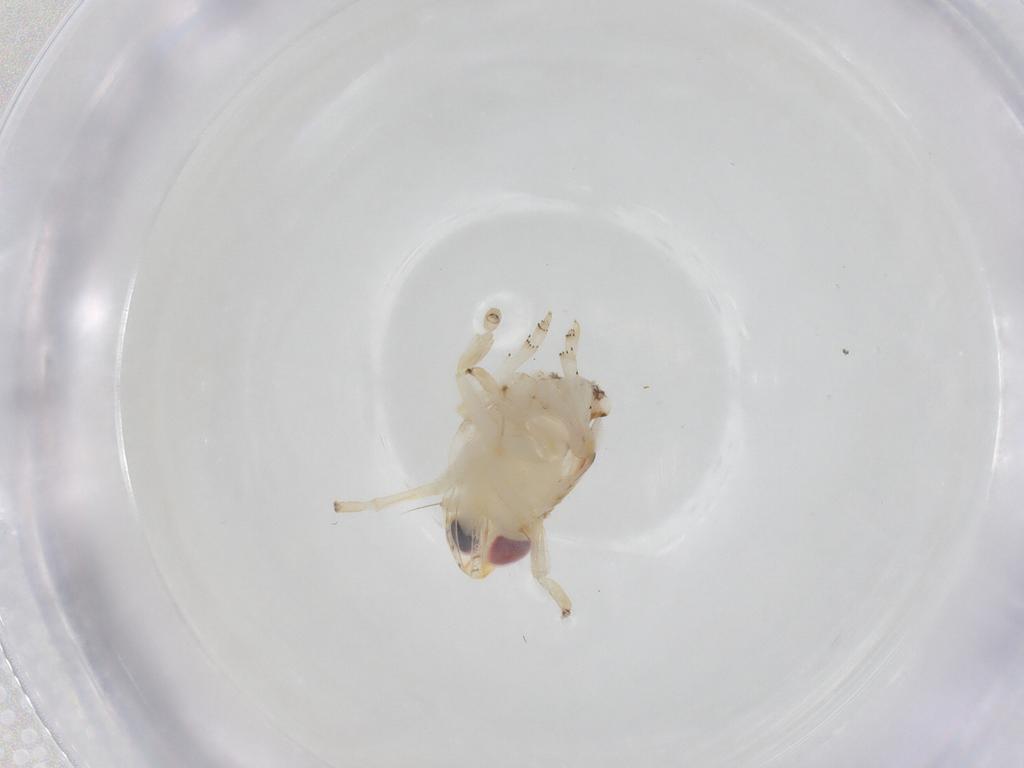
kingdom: Animalia
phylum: Arthropoda
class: Insecta
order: Hemiptera
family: Nogodinidae
